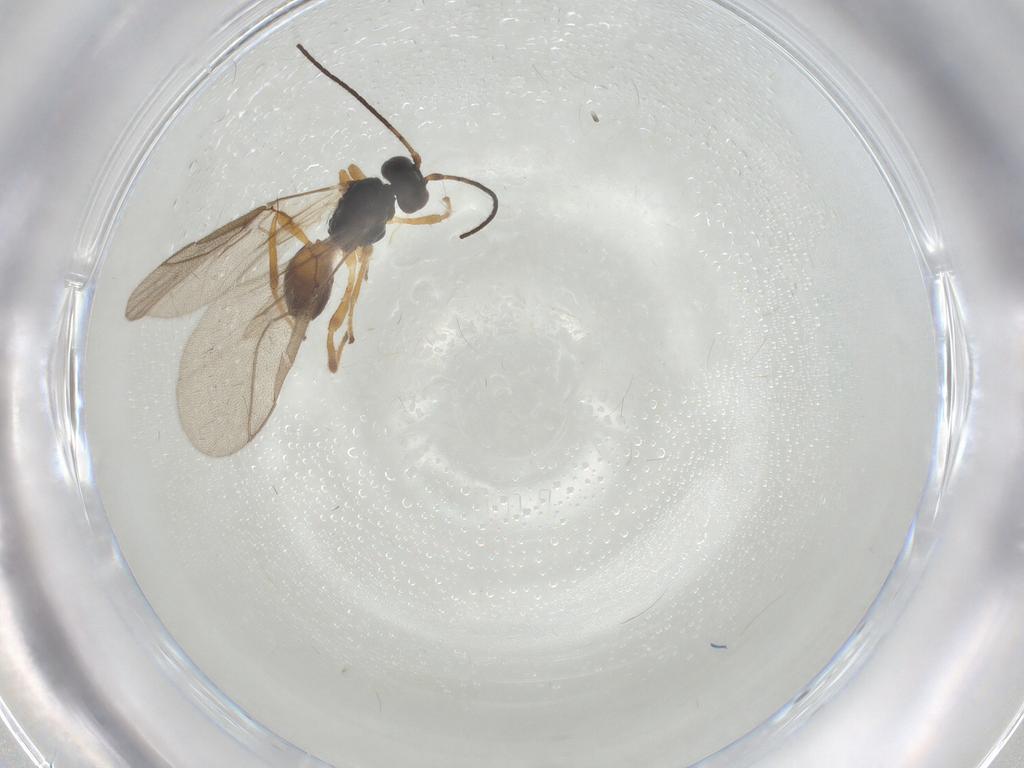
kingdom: Animalia
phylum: Arthropoda
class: Insecta
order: Hymenoptera
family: Braconidae
